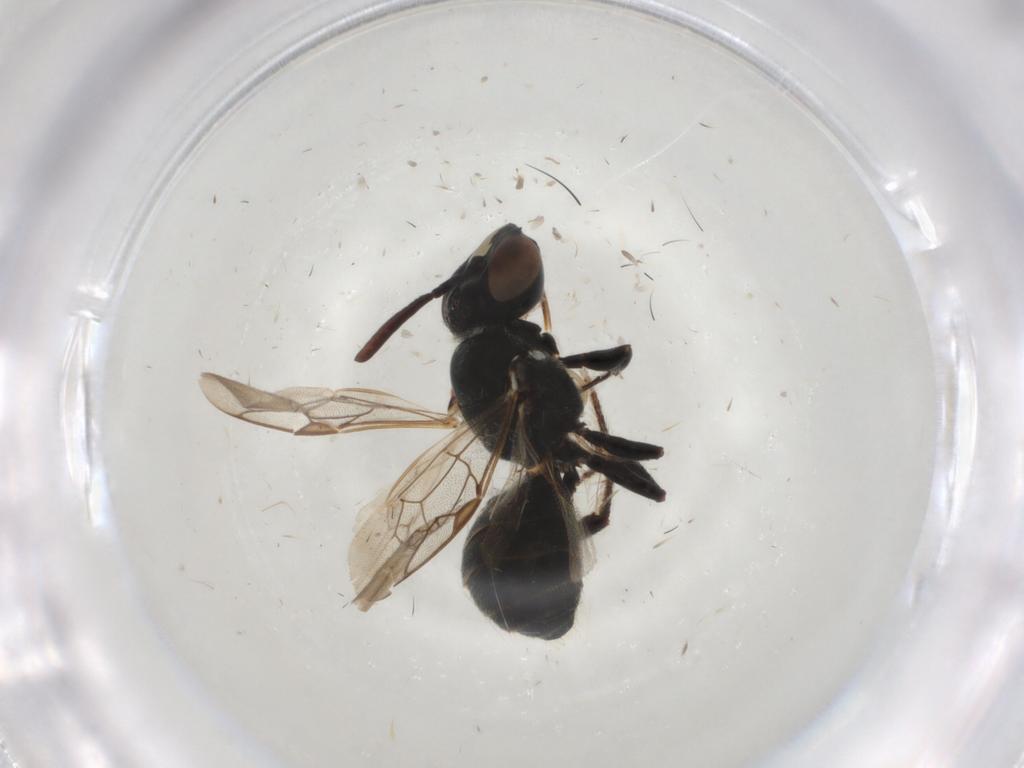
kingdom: Animalia
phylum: Arthropoda
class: Insecta
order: Hymenoptera
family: Apidae
